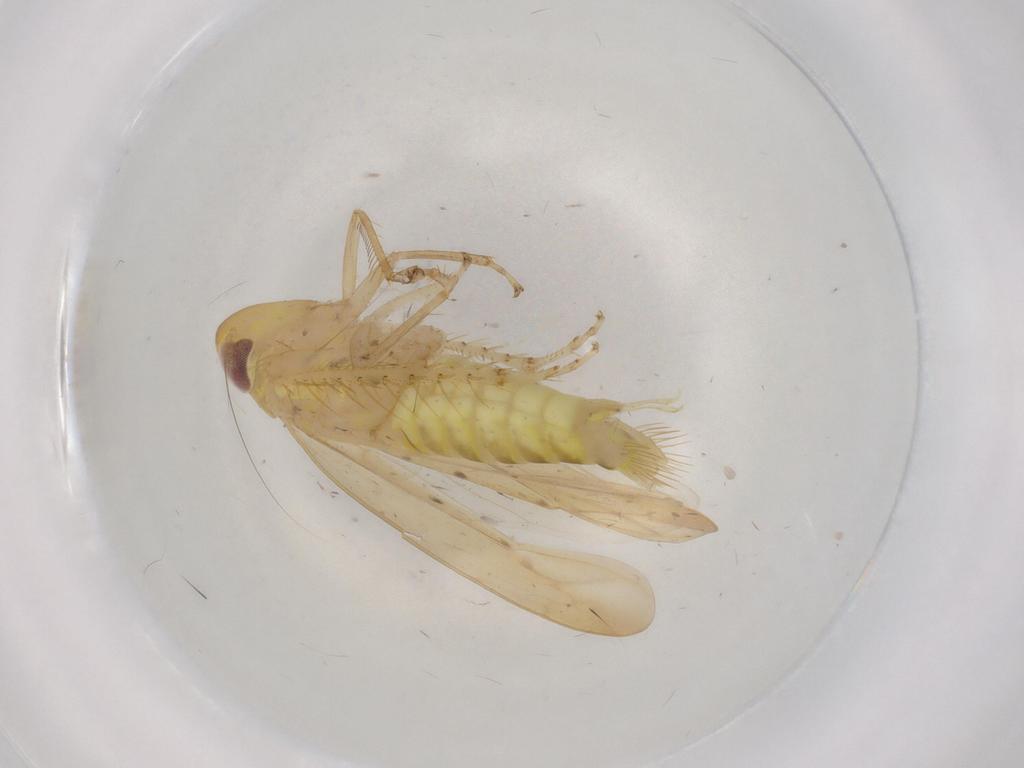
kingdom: Animalia
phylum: Arthropoda
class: Insecta
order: Hemiptera
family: Cicadellidae
